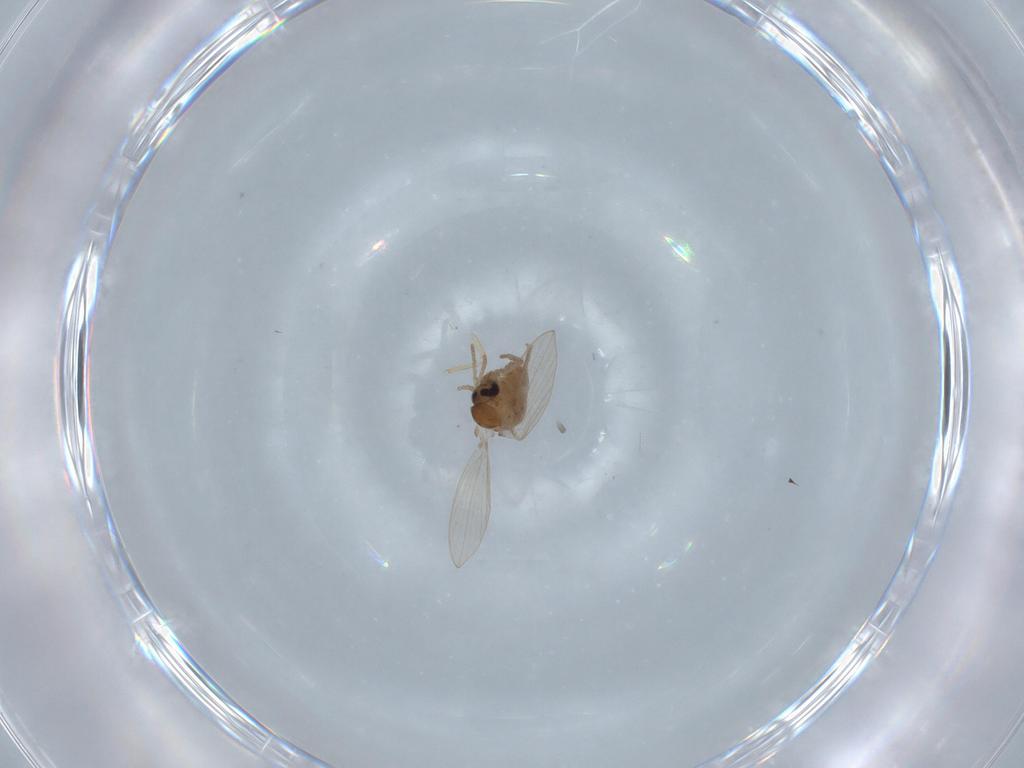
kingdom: Animalia
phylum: Arthropoda
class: Insecta
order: Diptera
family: Psychodidae
